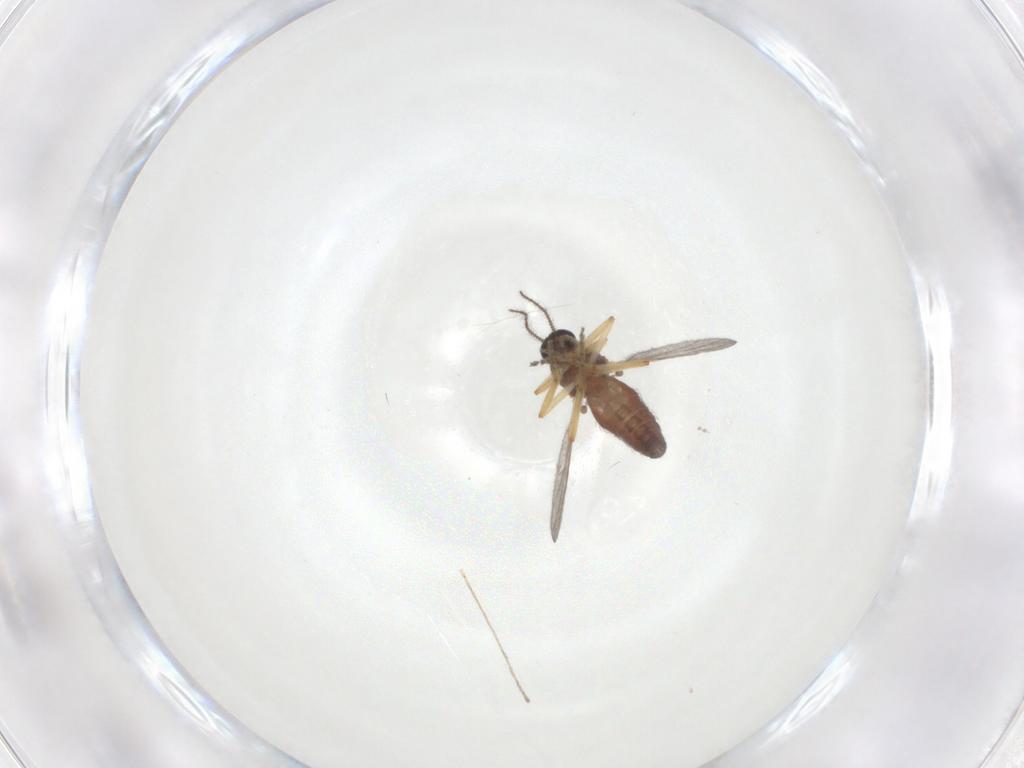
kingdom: Animalia
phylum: Arthropoda
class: Insecta
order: Diptera
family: Ceratopogonidae
